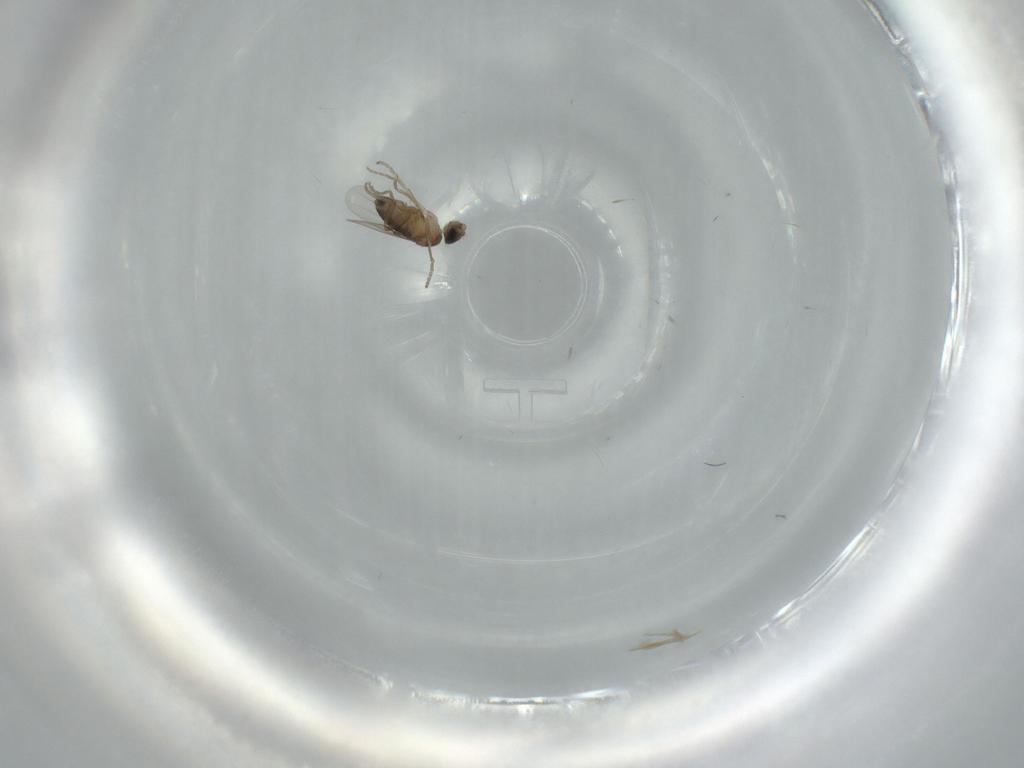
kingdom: Animalia
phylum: Arthropoda
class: Insecta
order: Diptera
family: Phoridae
